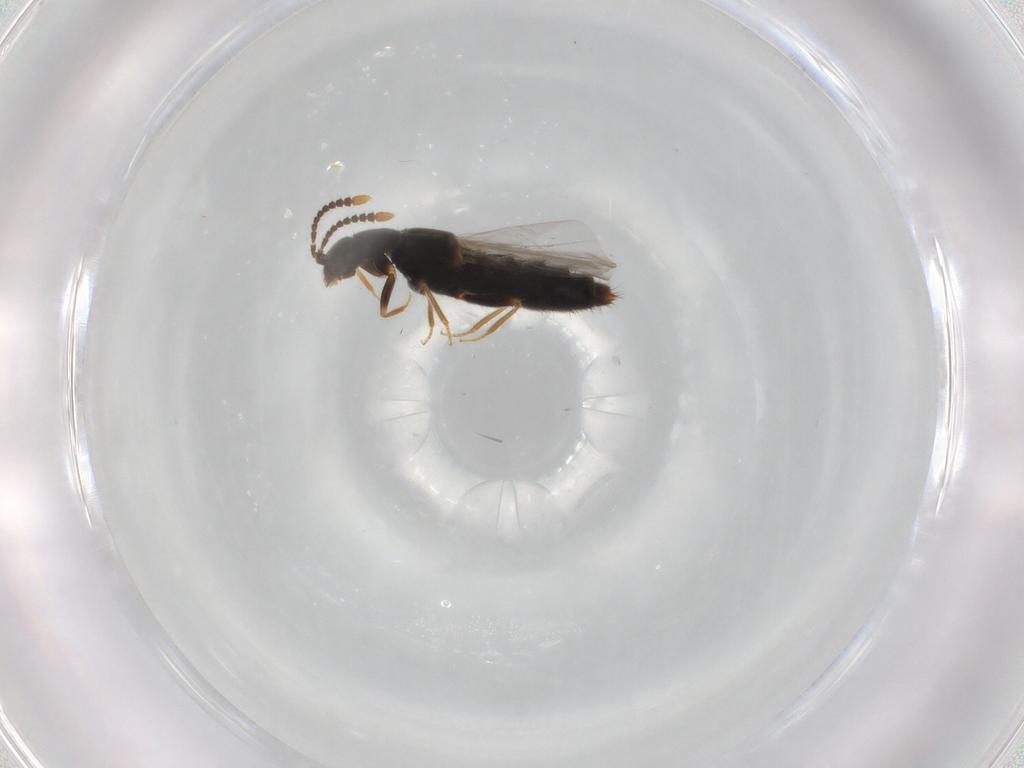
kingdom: Animalia
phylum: Arthropoda
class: Insecta
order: Coleoptera
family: Staphylinidae
